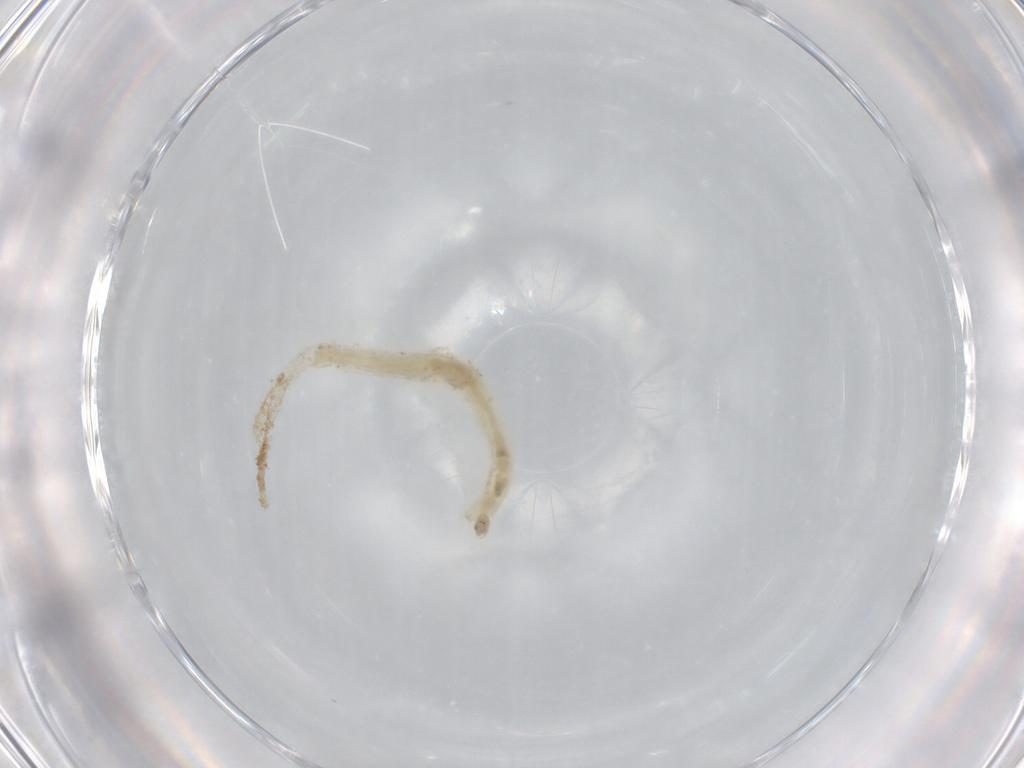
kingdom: Animalia
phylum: Arthropoda
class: Insecta
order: Diptera
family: Chironomidae
